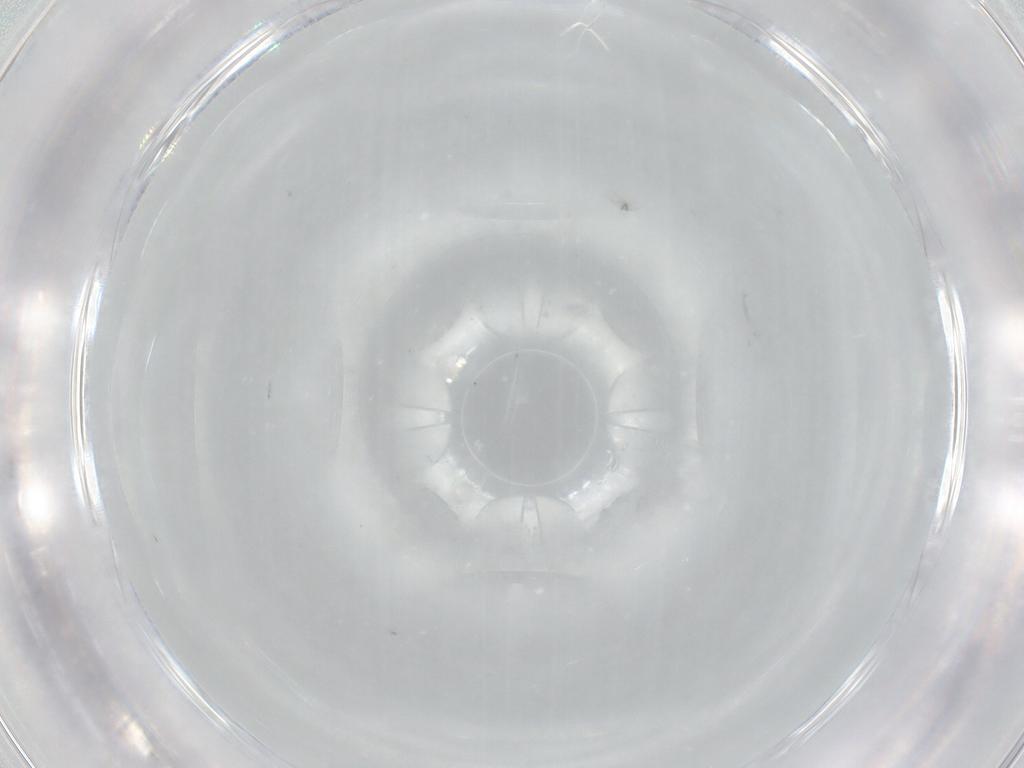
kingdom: Animalia
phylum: Arthropoda
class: Insecta
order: Hymenoptera
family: Mymaridae
